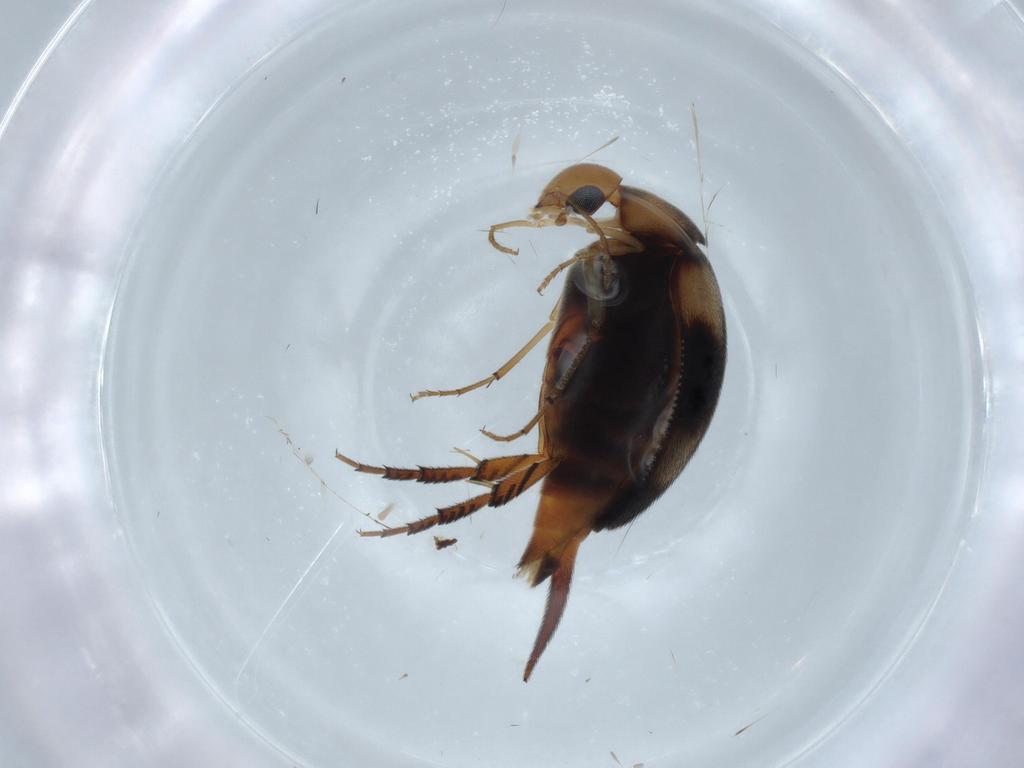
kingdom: Animalia
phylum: Arthropoda
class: Insecta
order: Coleoptera
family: Mordellidae
